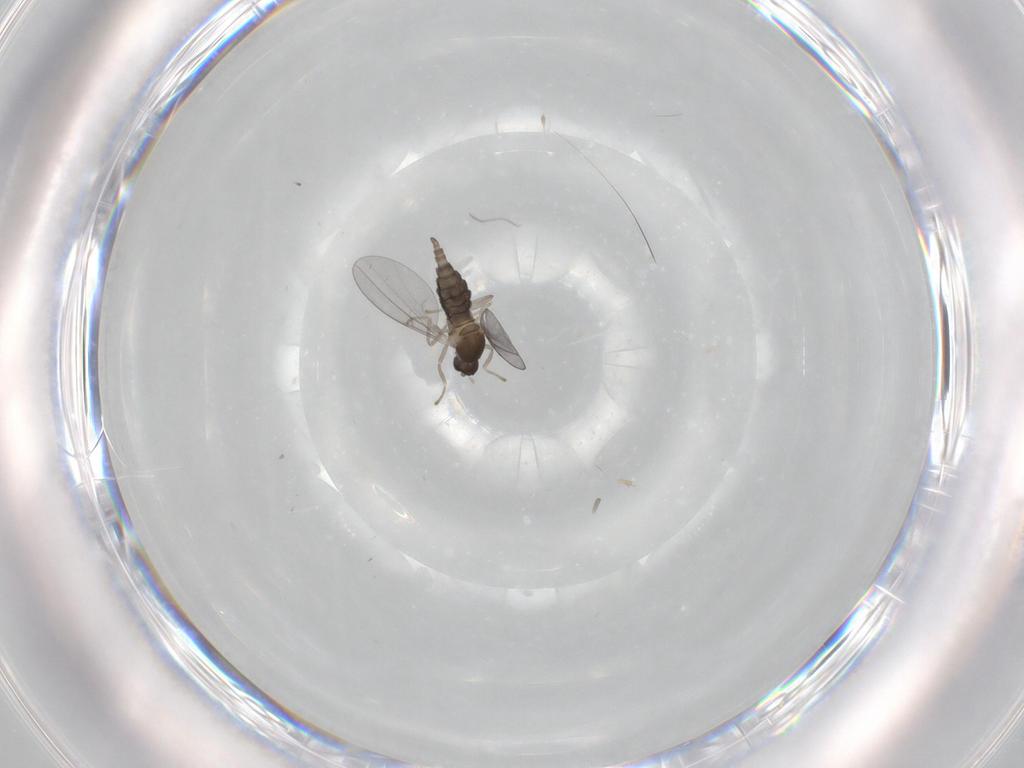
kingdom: Animalia
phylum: Arthropoda
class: Insecta
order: Diptera
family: Cecidomyiidae
